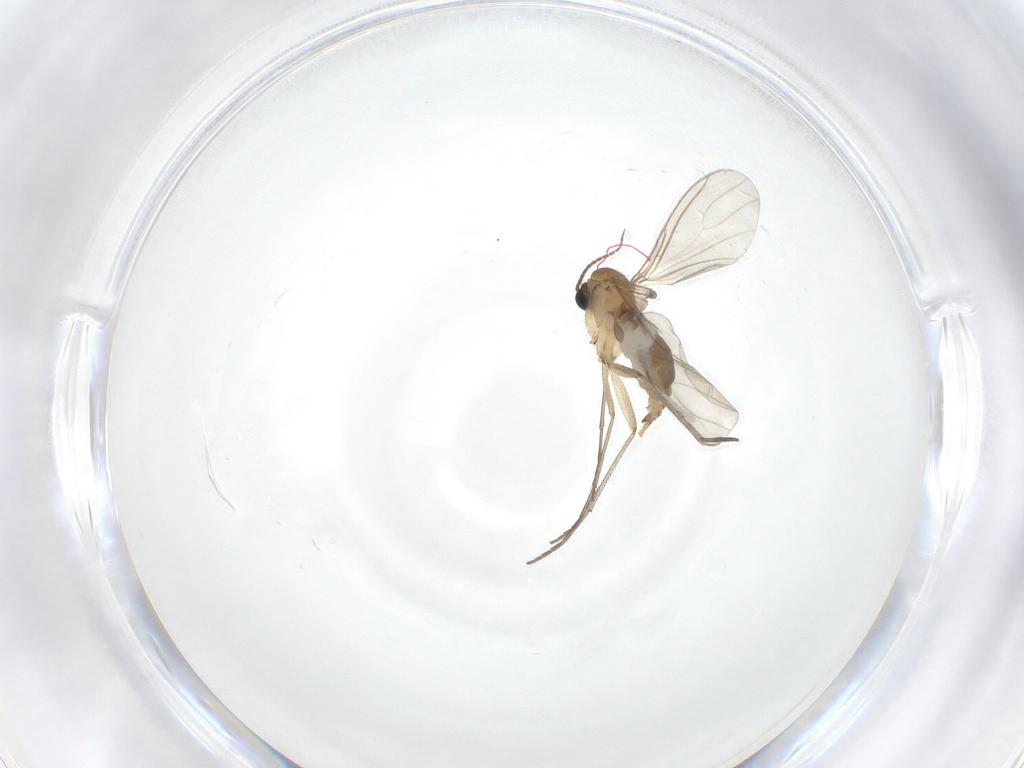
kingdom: Animalia
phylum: Arthropoda
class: Insecta
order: Diptera
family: Sciaridae
